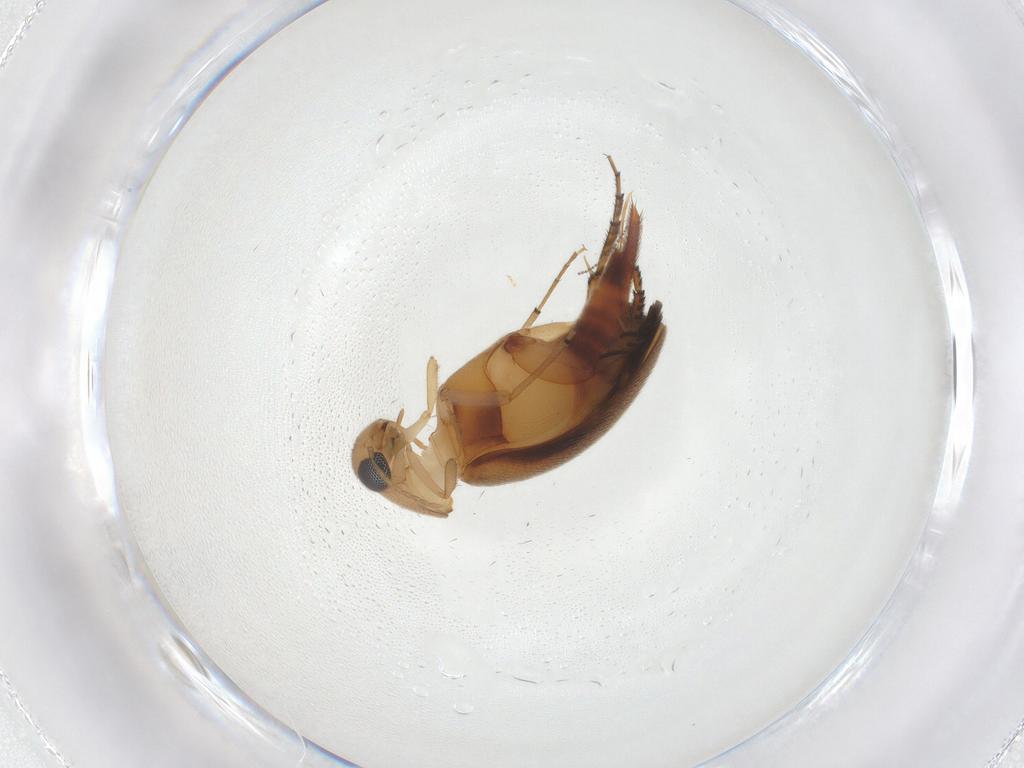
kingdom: Animalia
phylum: Arthropoda
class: Insecta
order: Coleoptera
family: Mordellidae
